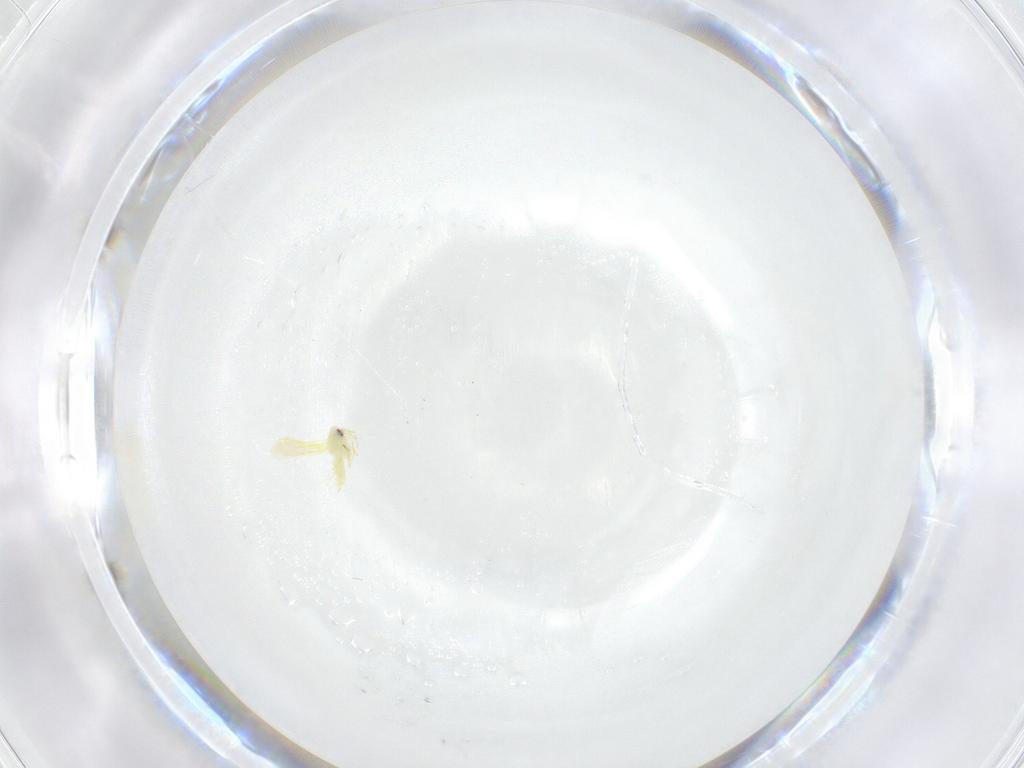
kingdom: Animalia
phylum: Arthropoda
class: Insecta
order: Hemiptera
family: Aleyrodidae
